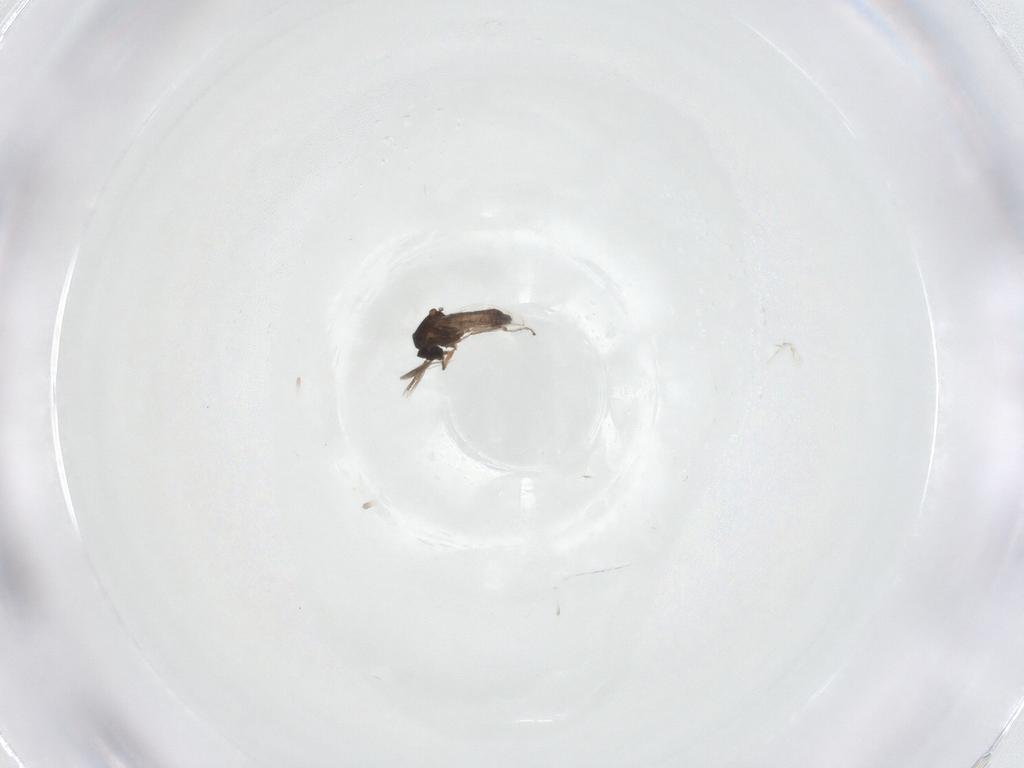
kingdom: Animalia
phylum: Arthropoda
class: Insecta
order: Diptera
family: Ceratopogonidae
